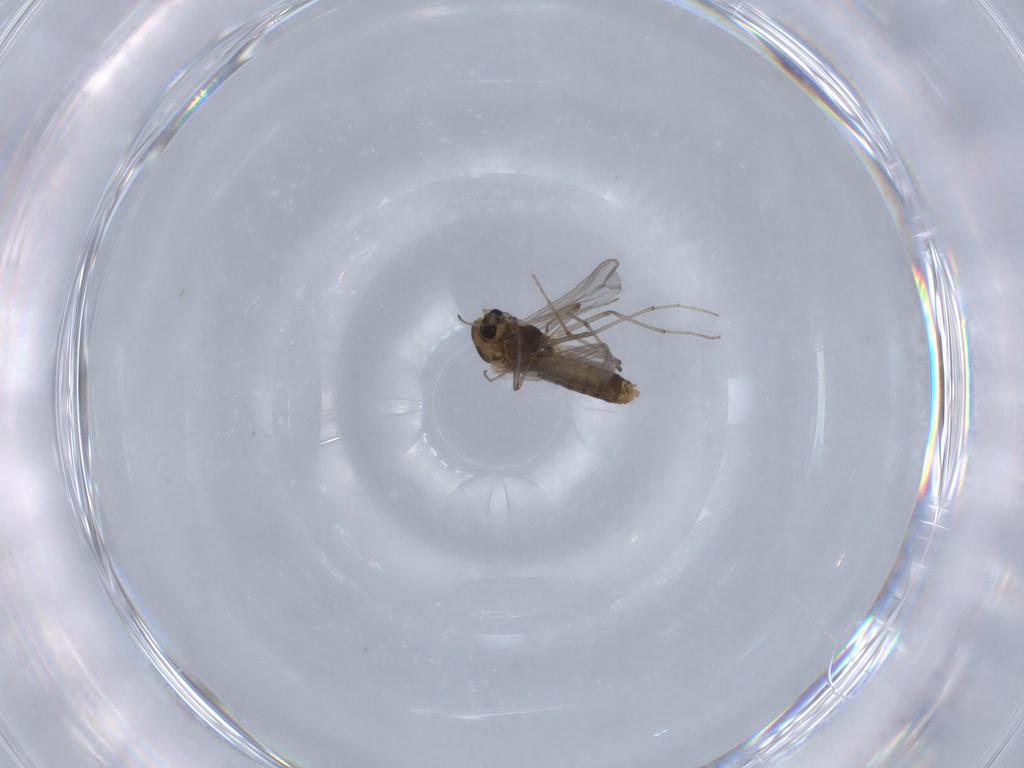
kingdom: Animalia
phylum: Arthropoda
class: Insecta
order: Diptera
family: Chironomidae
